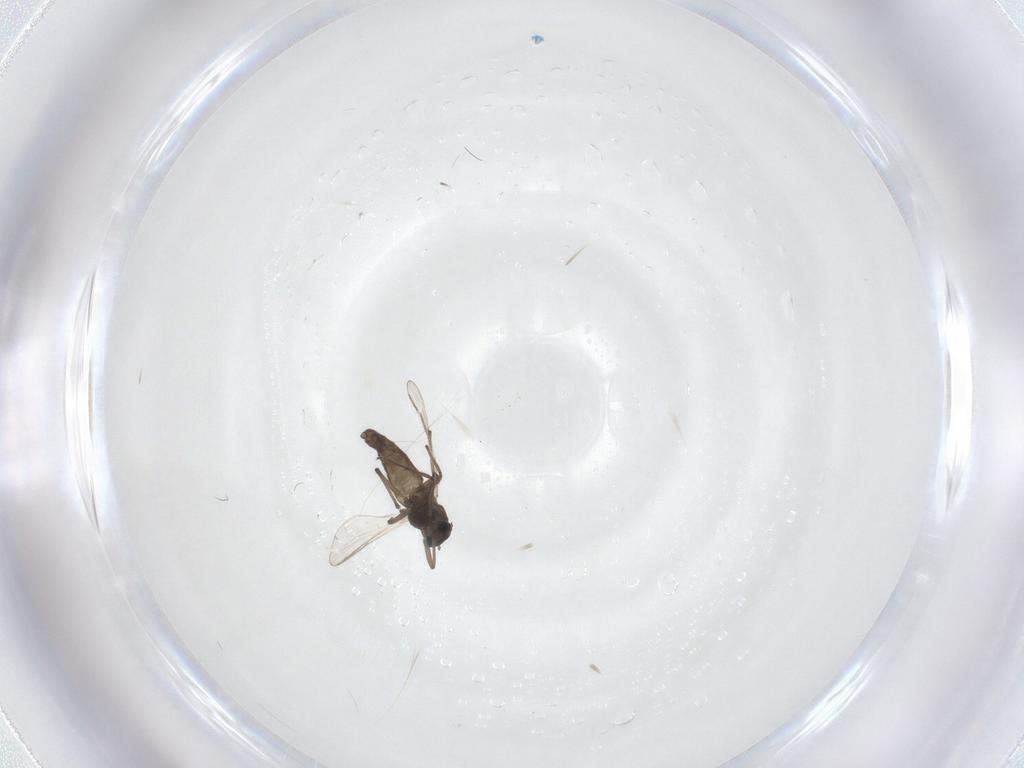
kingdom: Animalia
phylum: Arthropoda
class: Insecta
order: Diptera
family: Chironomidae
